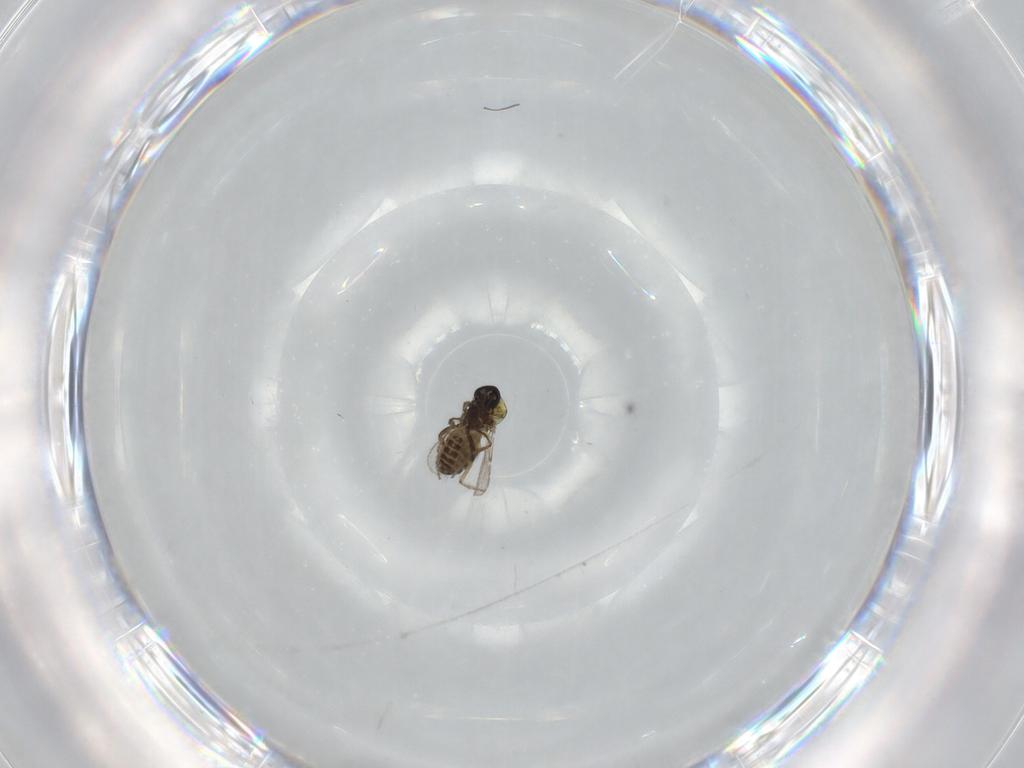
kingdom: Animalia
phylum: Arthropoda
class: Insecta
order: Diptera
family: Ceratopogonidae
